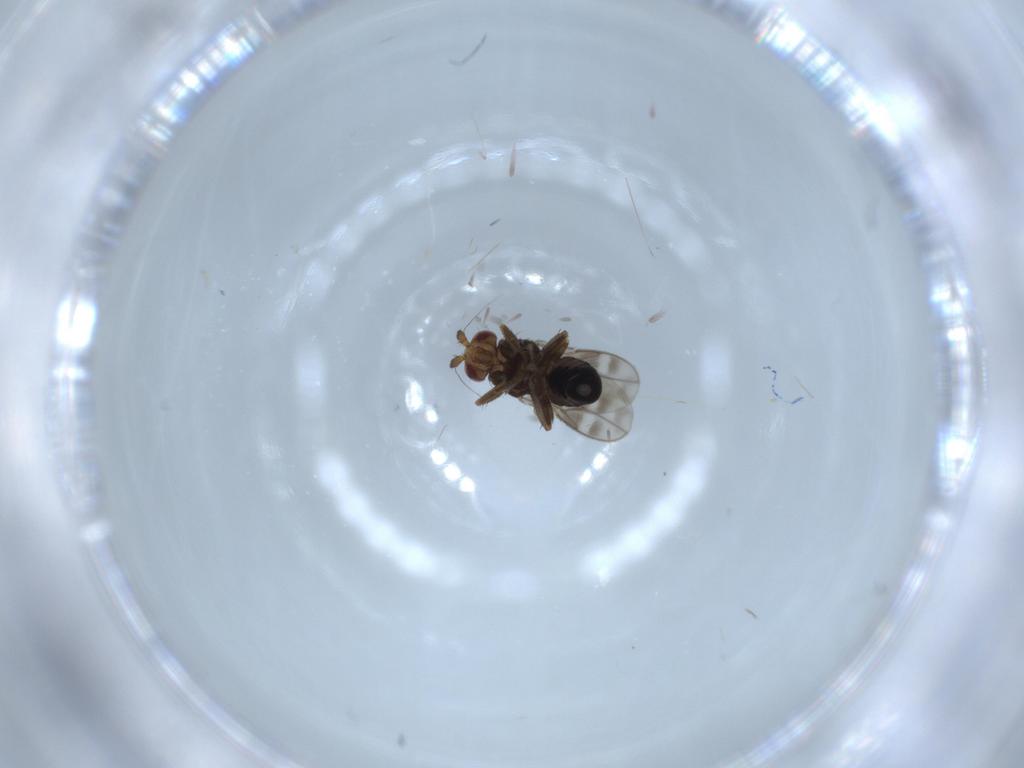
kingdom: Animalia
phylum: Arthropoda
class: Insecta
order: Diptera
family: Sphaeroceridae
